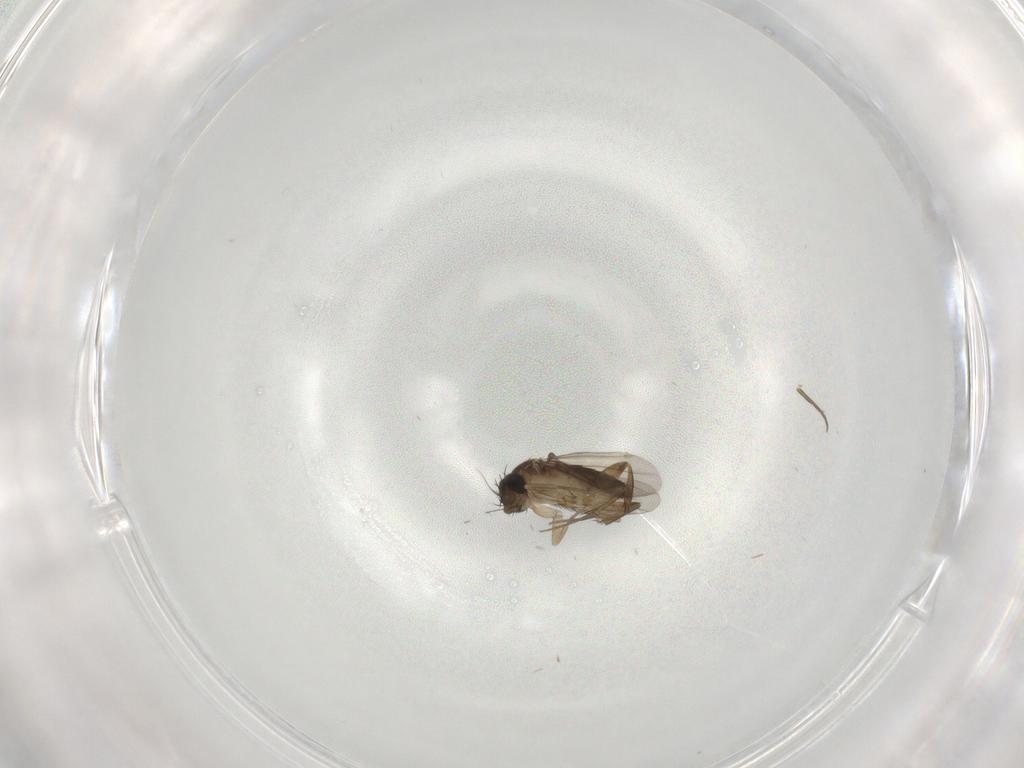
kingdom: Animalia
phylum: Arthropoda
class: Insecta
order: Diptera
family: Phoridae
